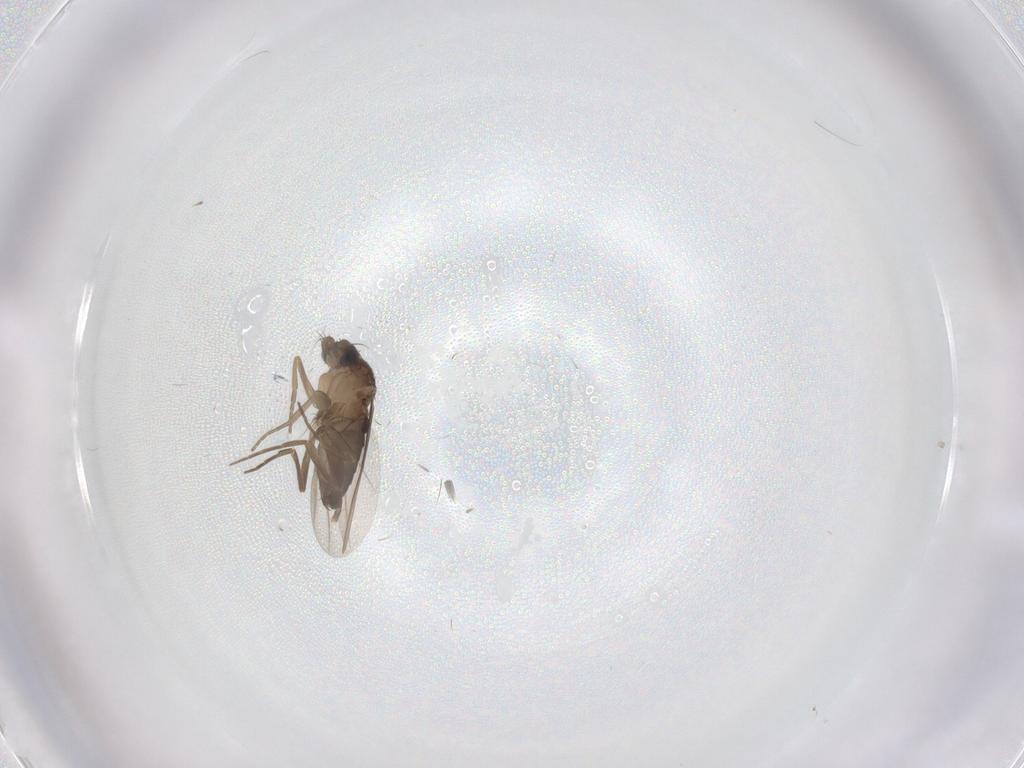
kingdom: Animalia
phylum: Arthropoda
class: Insecta
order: Diptera
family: Phoridae
